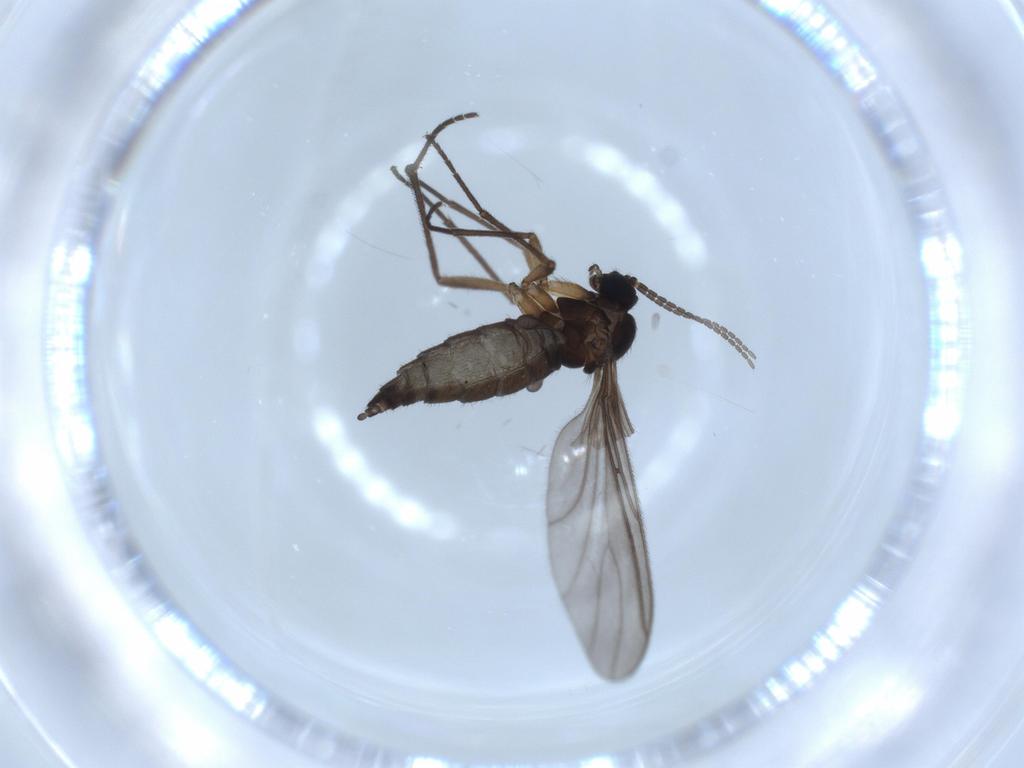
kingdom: Animalia
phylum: Arthropoda
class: Insecta
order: Diptera
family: Sciaridae
